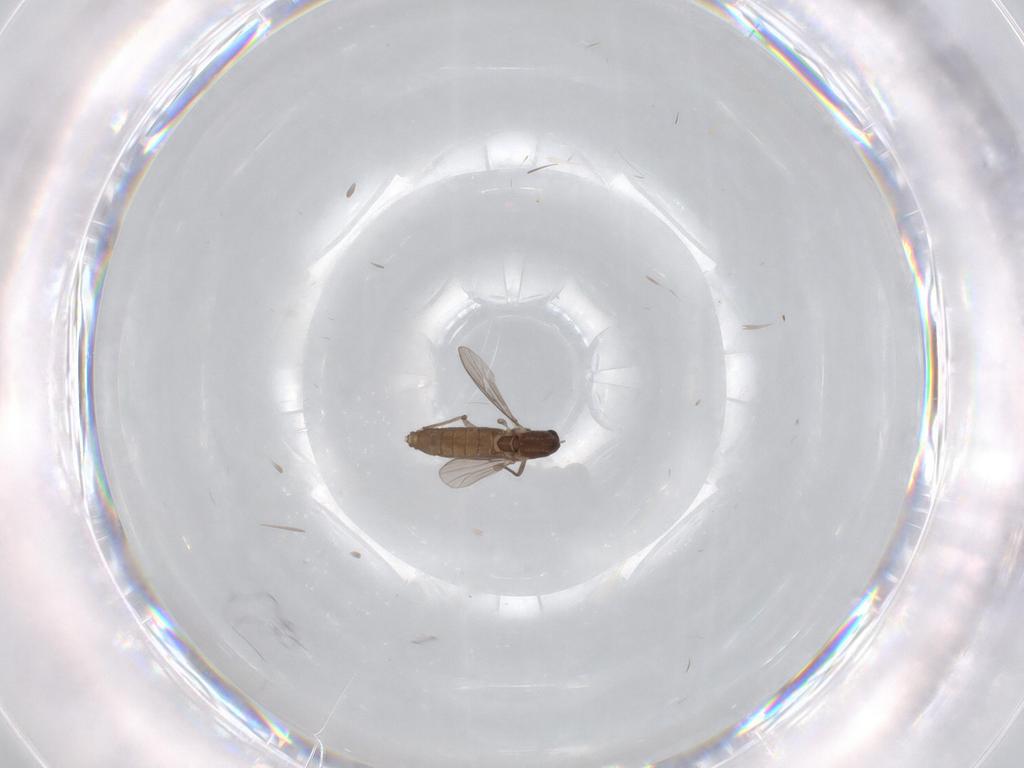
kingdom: Animalia
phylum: Arthropoda
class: Insecta
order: Diptera
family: Chironomidae
